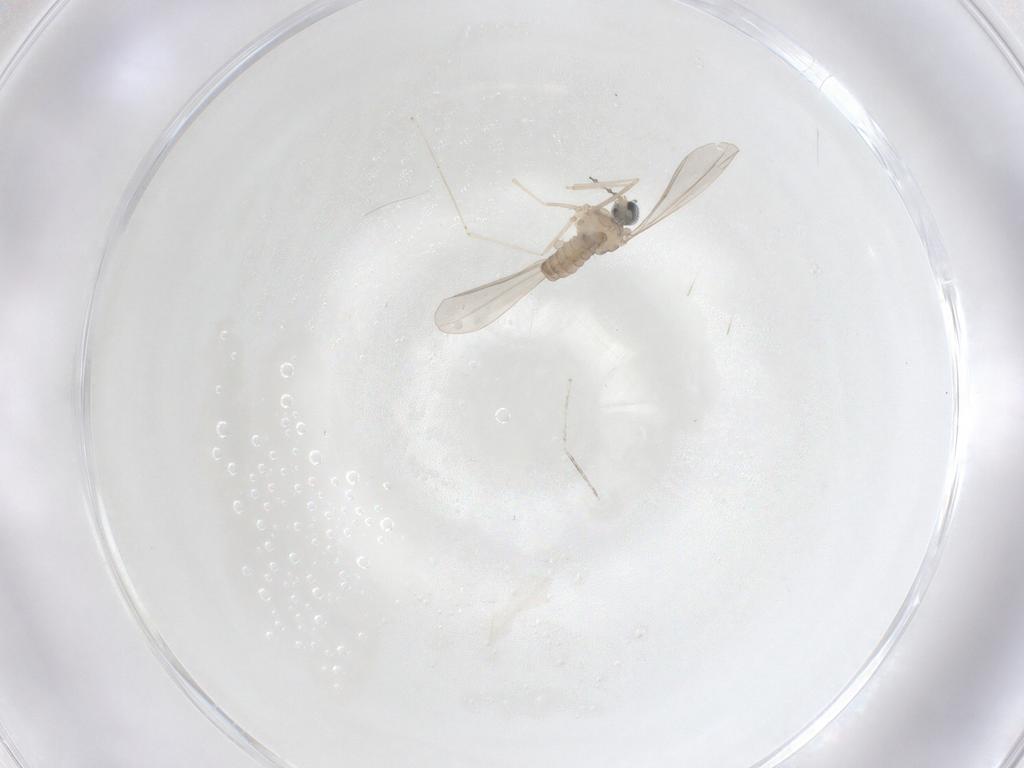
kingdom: Animalia
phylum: Arthropoda
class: Insecta
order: Diptera
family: Cecidomyiidae
